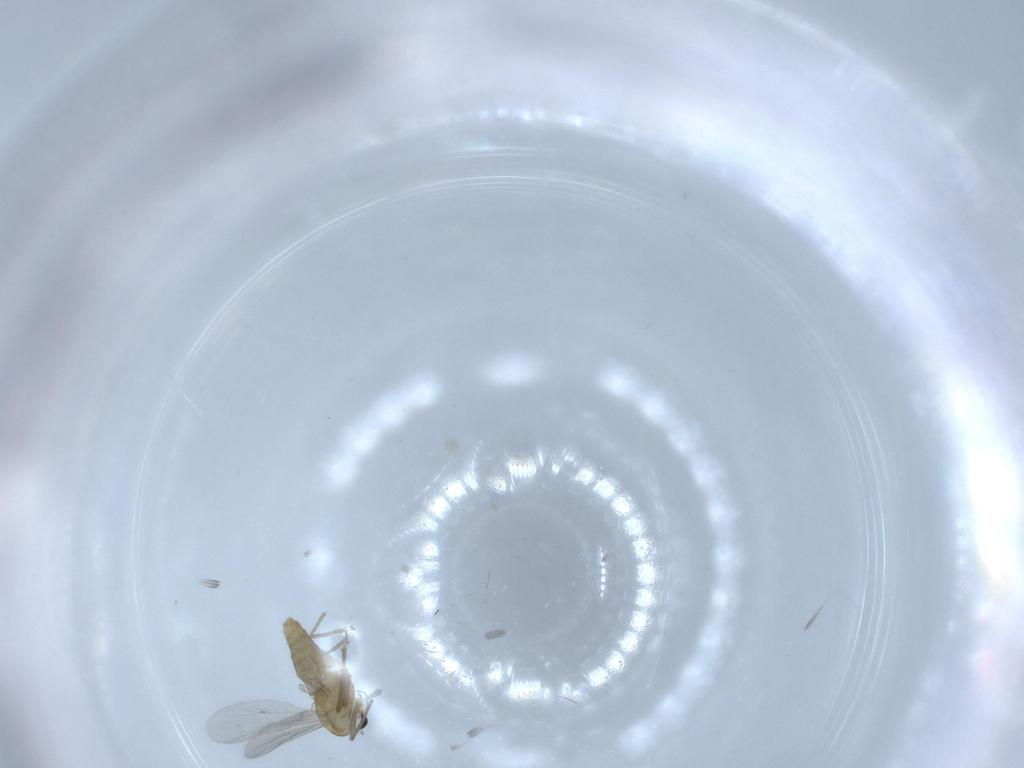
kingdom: Animalia
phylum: Arthropoda
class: Insecta
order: Diptera
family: Chironomidae
